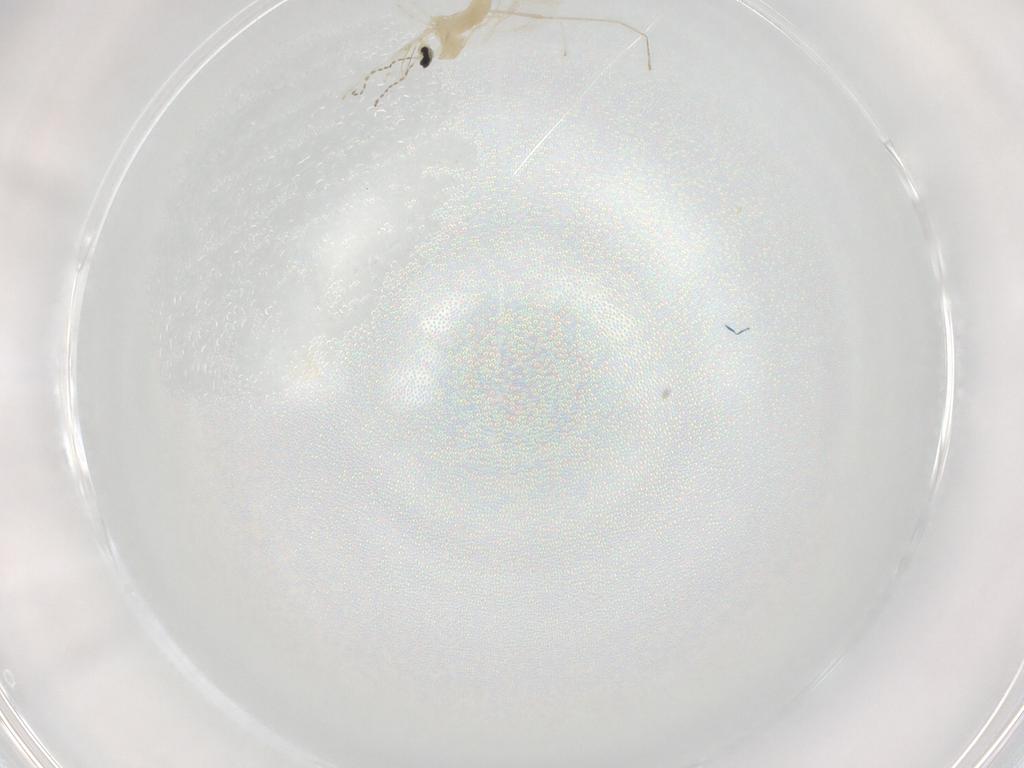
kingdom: Animalia
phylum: Arthropoda
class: Insecta
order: Diptera
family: Cecidomyiidae
